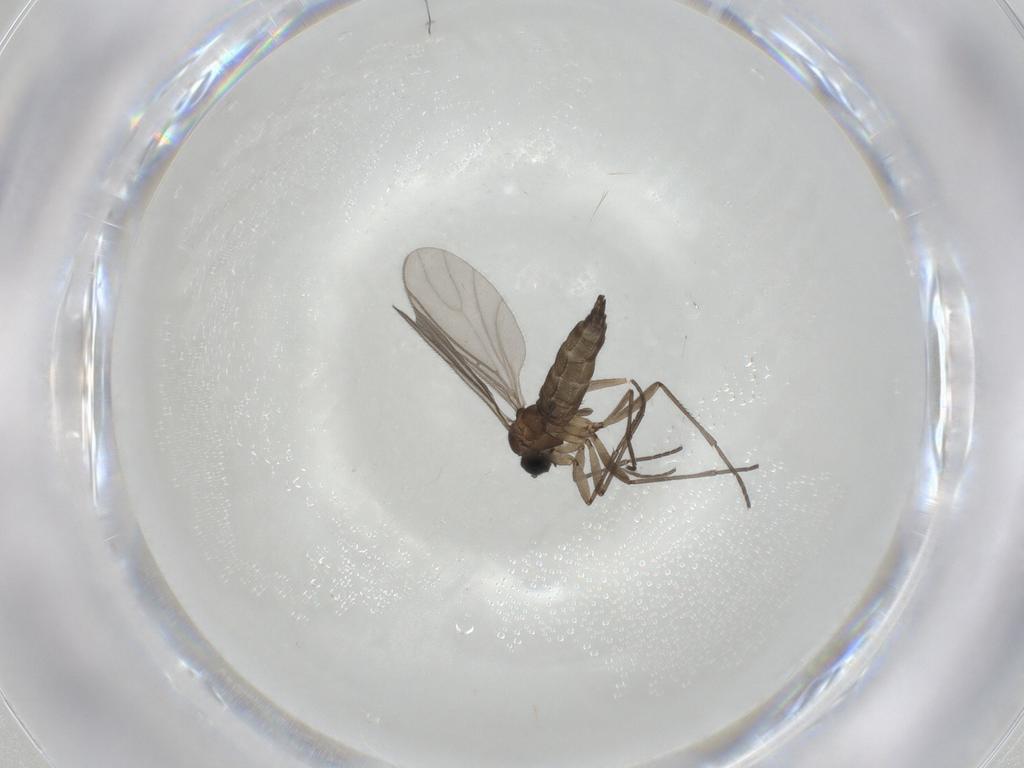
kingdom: Animalia
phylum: Arthropoda
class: Insecta
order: Diptera
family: Sciaridae
